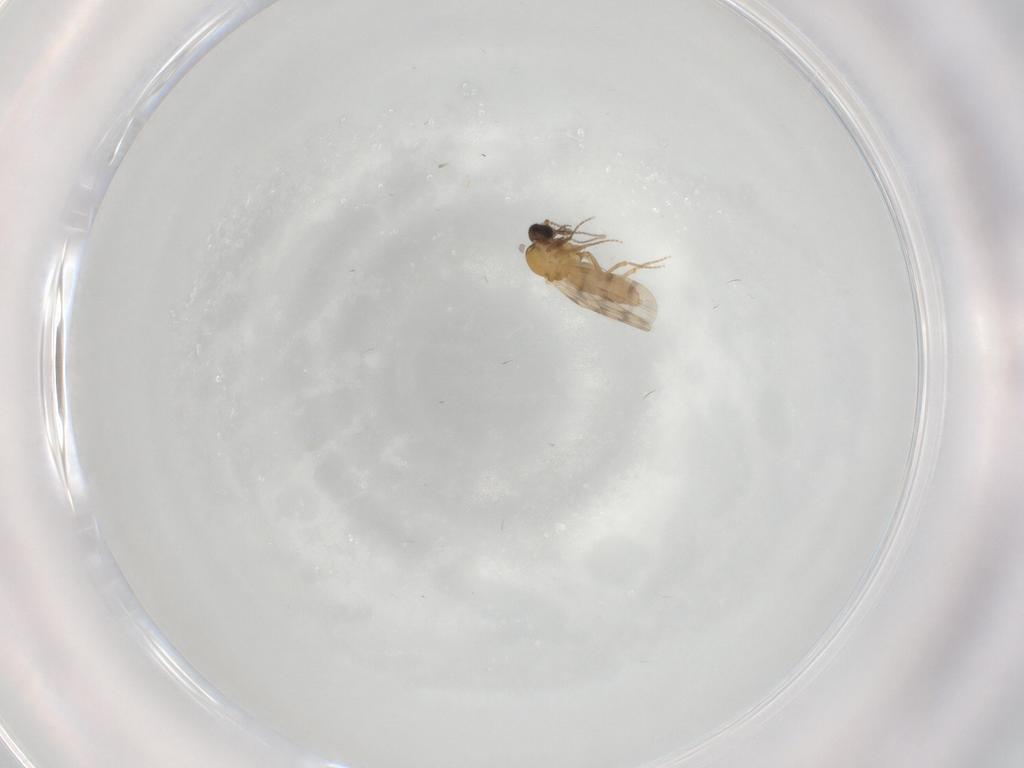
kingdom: Animalia
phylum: Arthropoda
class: Insecta
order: Diptera
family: Ceratopogonidae
